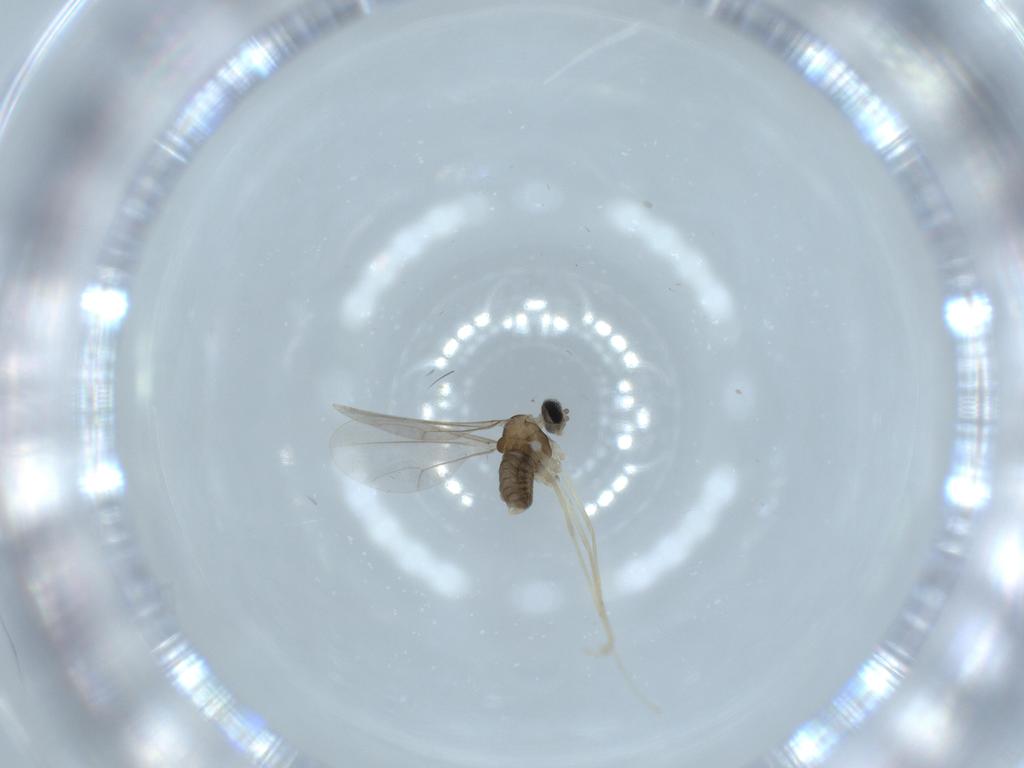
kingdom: Animalia
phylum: Arthropoda
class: Insecta
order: Diptera
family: Cecidomyiidae
